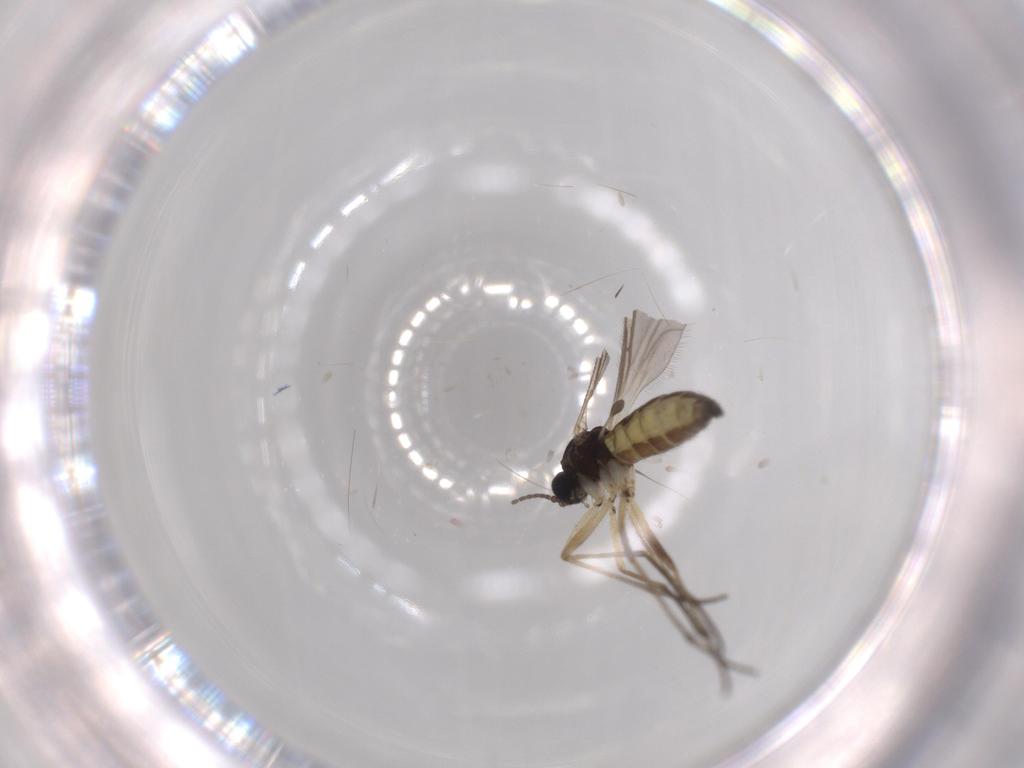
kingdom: Animalia
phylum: Arthropoda
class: Insecta
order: Diptera
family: Sciaridae
